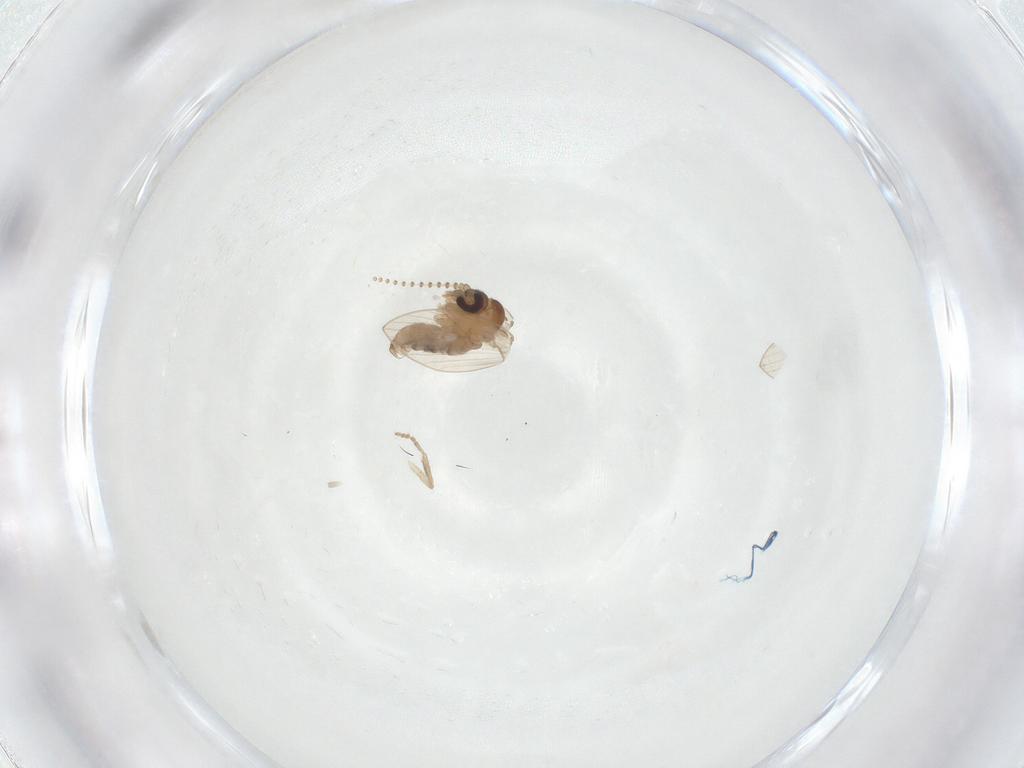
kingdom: Animalia
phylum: Arthropoda
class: Insecta
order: Diptera
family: Psychodidae
